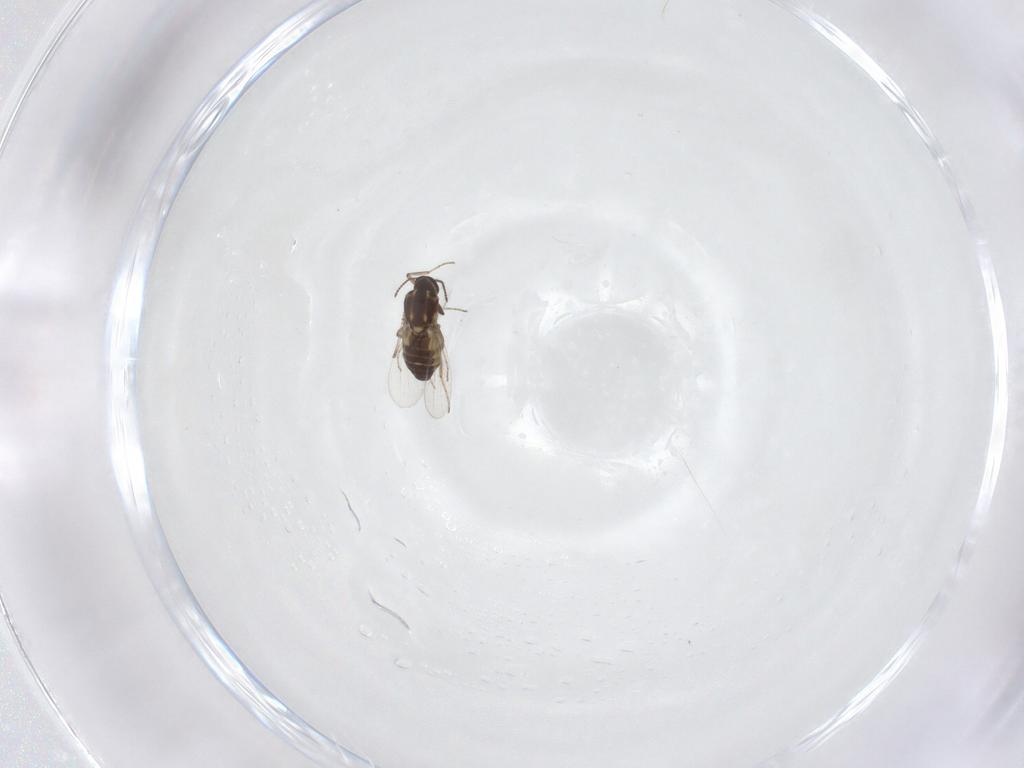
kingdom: Animalia
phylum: Arthropoda
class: Insecta
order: Diptera
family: Ceratopogonidae
